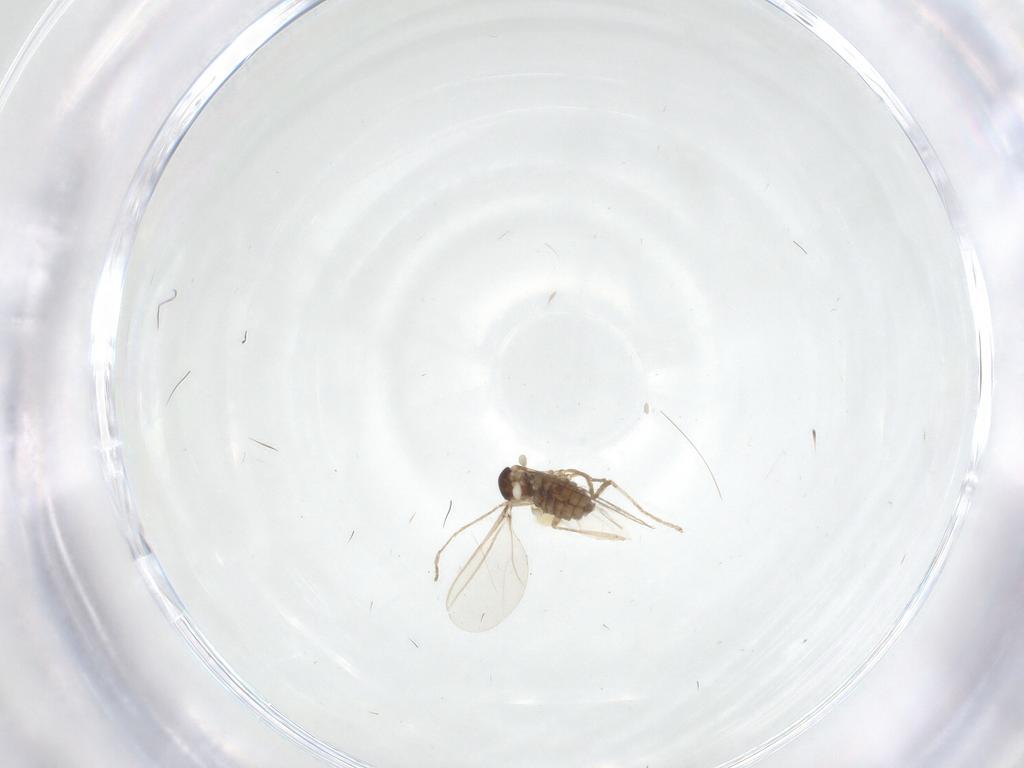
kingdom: Animalia
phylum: Arthropoda
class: Insecta
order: Diptera
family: Cecidomyiidae
